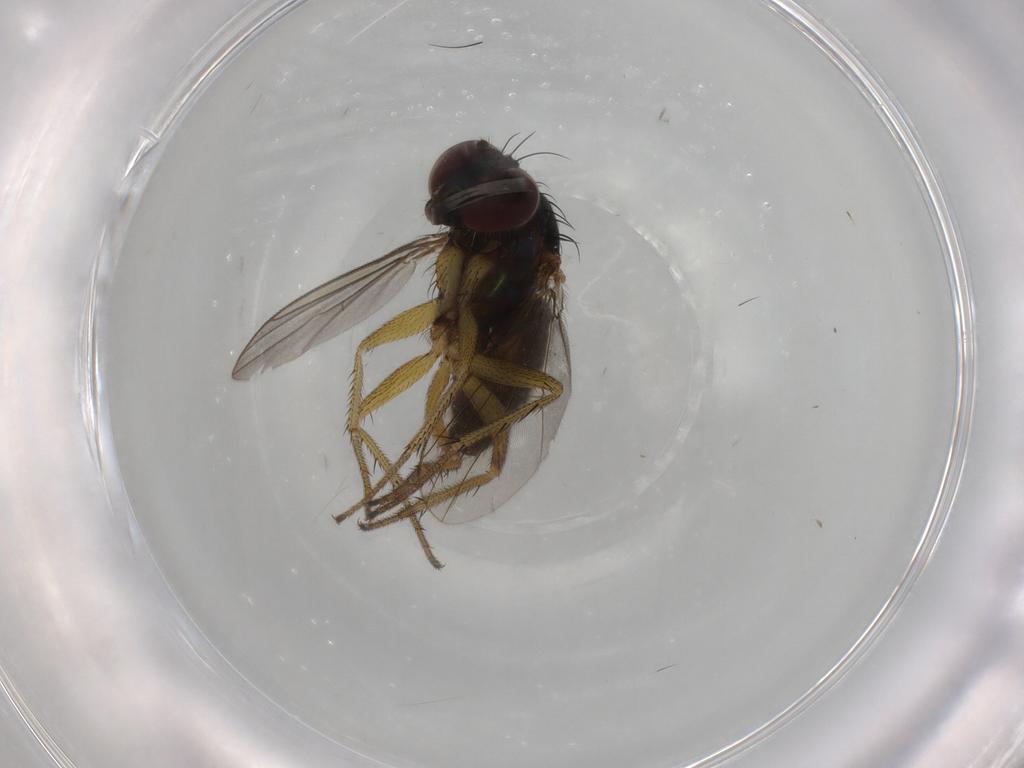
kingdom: Animalia
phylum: Arthropoda
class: Insecta
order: Diptera
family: Dolichopodidae
